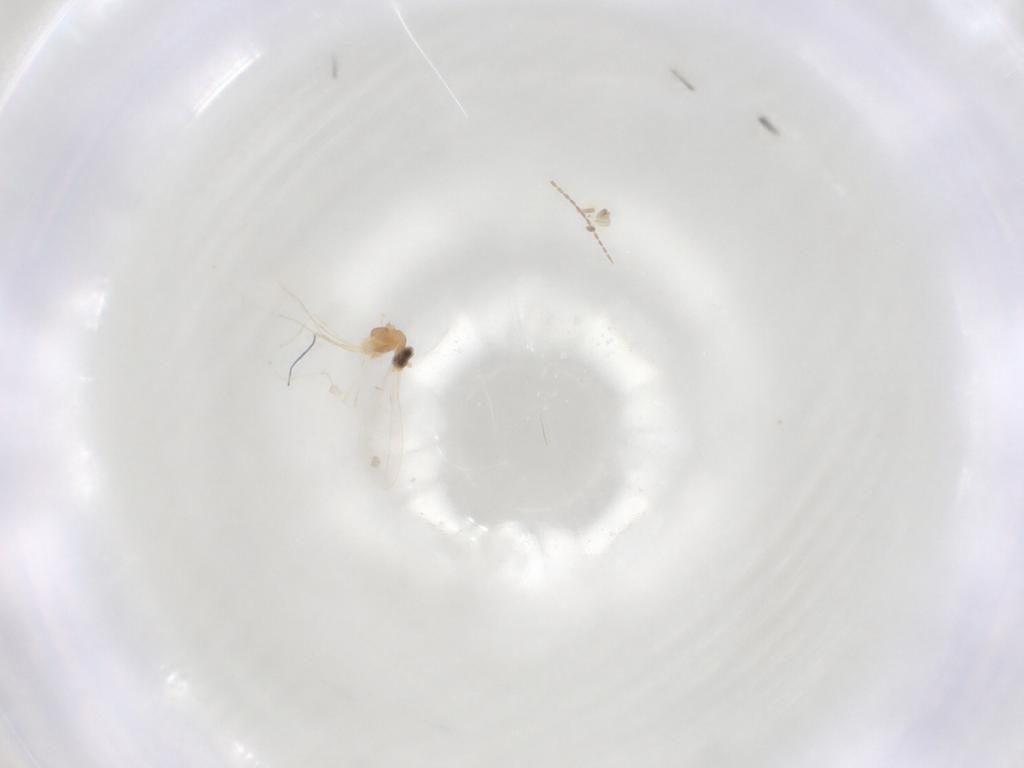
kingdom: Animalia
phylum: Arthropoda
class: Insecta
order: Diptera
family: Cecidomyiidae
